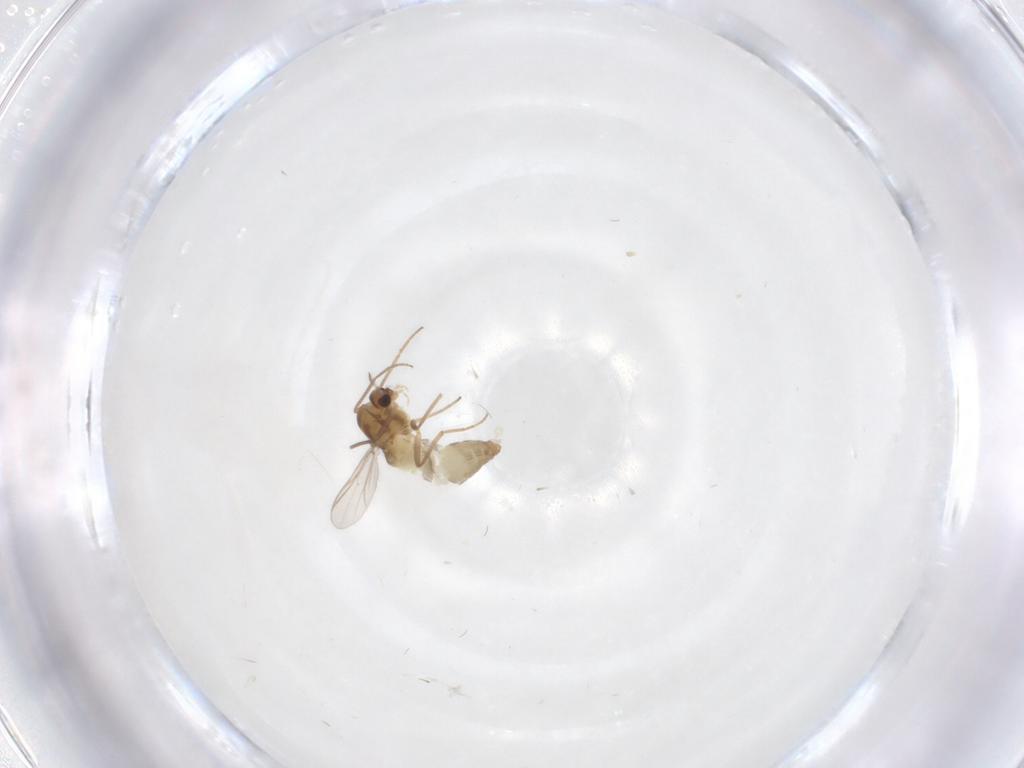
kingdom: Animalia
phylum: Arthropoda
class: Insecta
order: Diptera
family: Chironomidae
